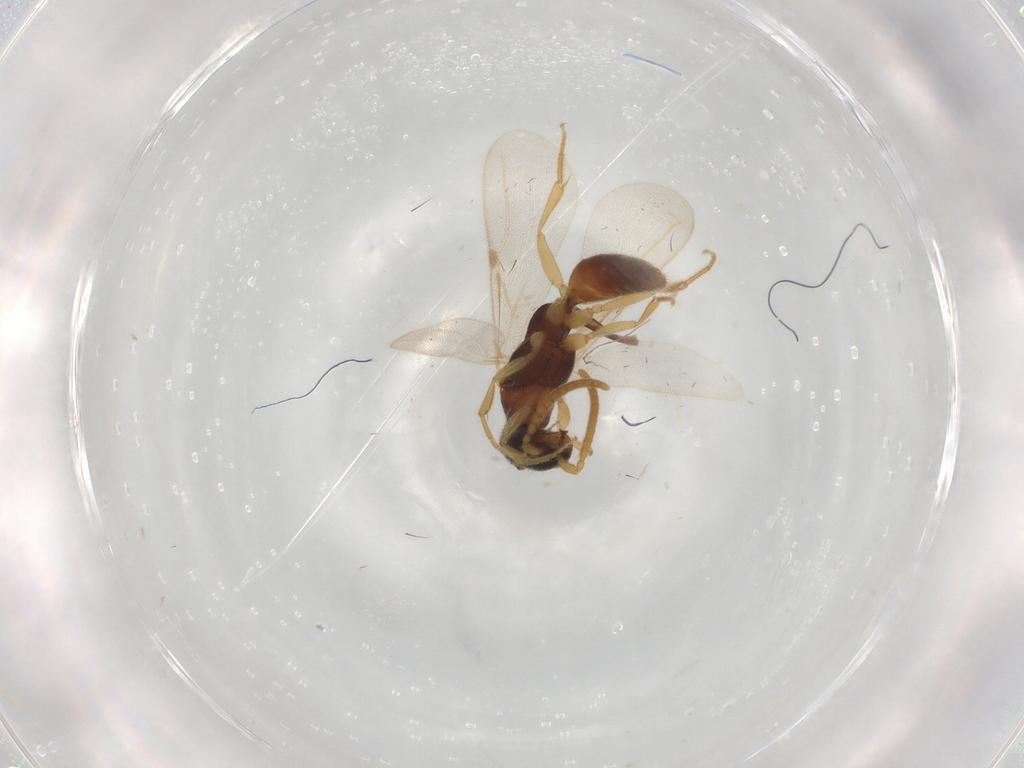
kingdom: Animalia
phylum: Arthropoda
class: Insecta
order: Hymenoptera
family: Bethylidae
